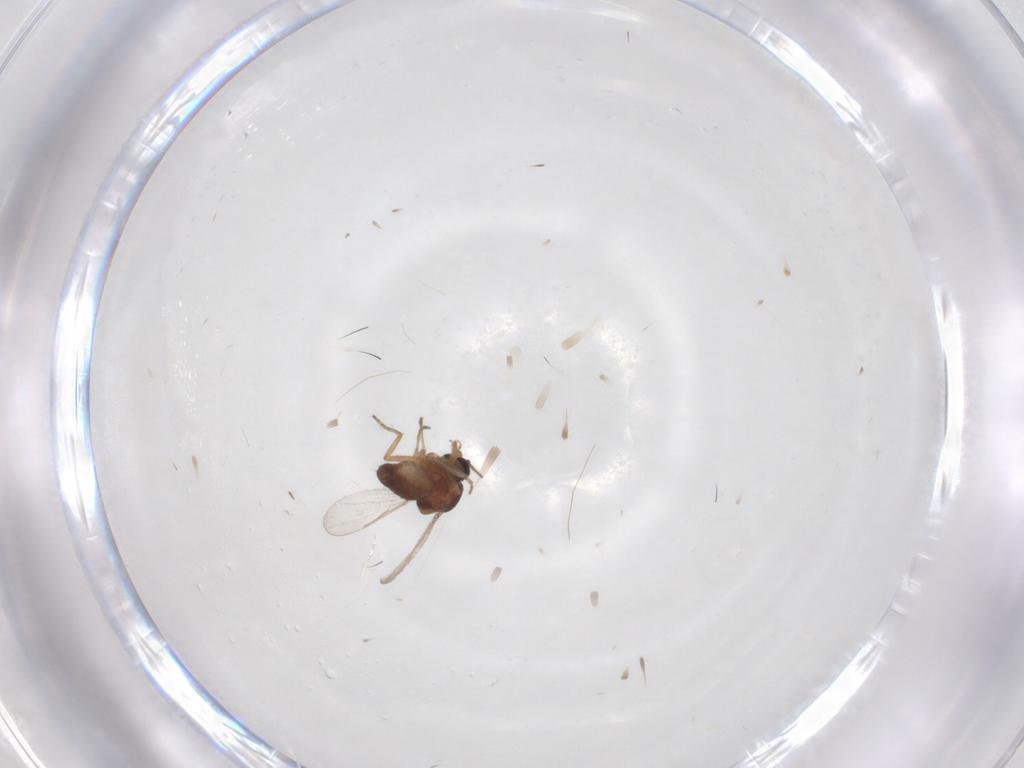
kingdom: Animalia
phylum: Arthropoda
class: Insecta
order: Diptera
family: Ceratopogonidae
